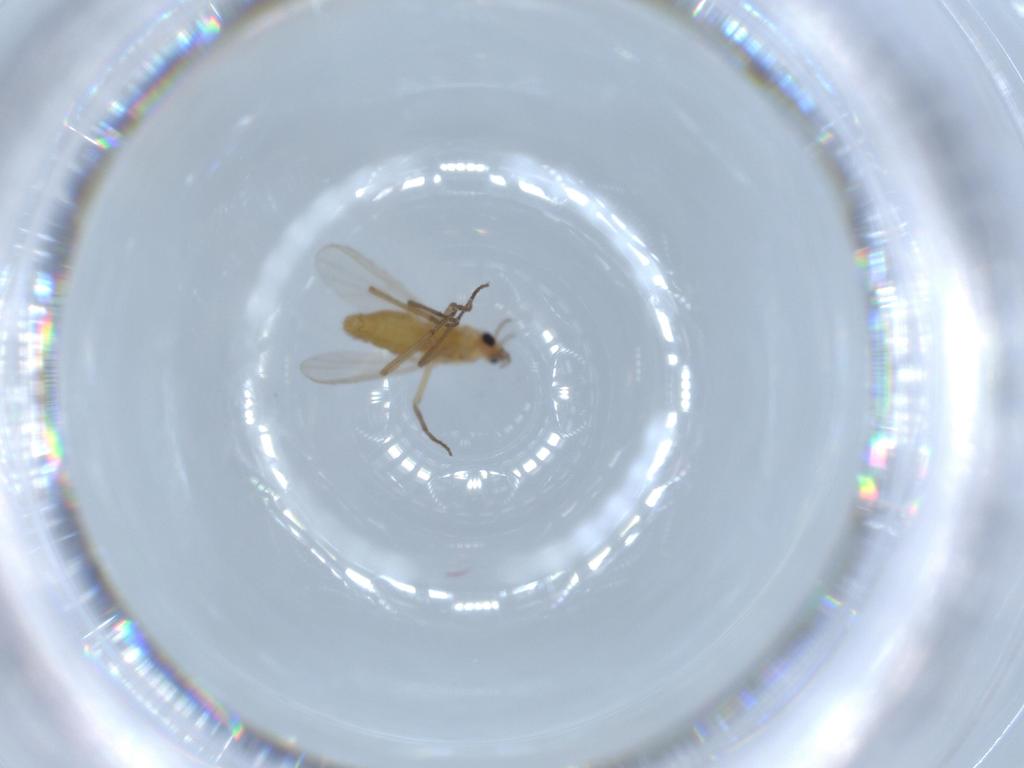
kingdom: Animalia
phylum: Arthropoda
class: Insecta
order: Diptera
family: Chironomidae
